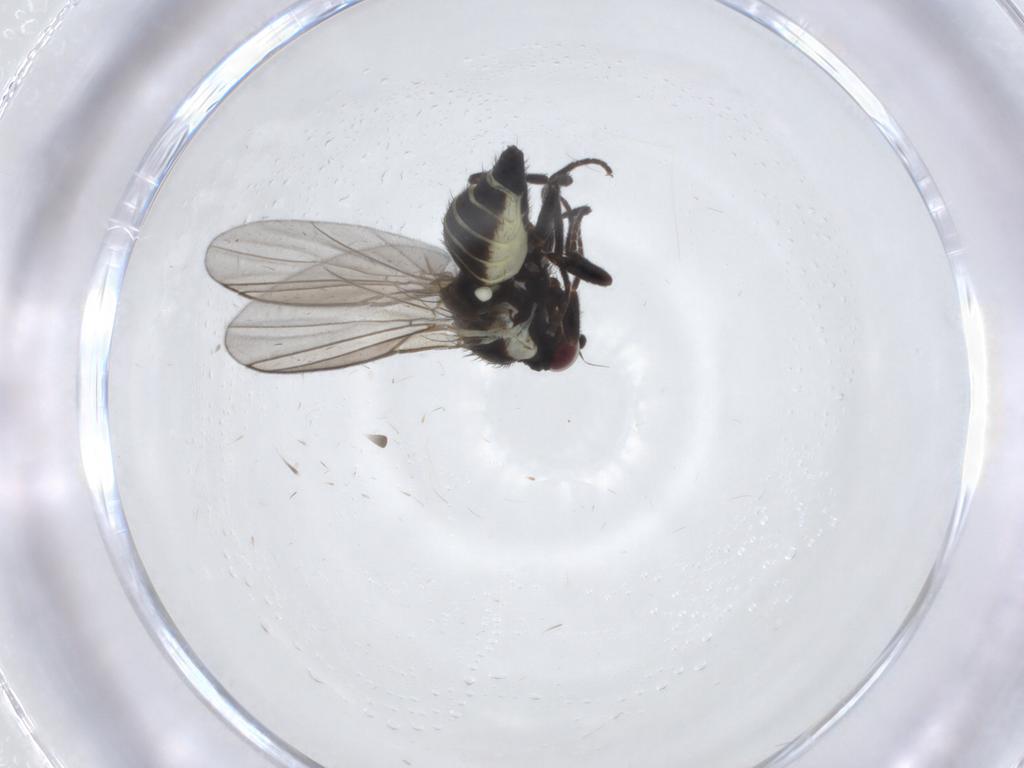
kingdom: Animalia
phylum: Arthropoda
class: Insecta
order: Diptera
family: Agromyzidae
